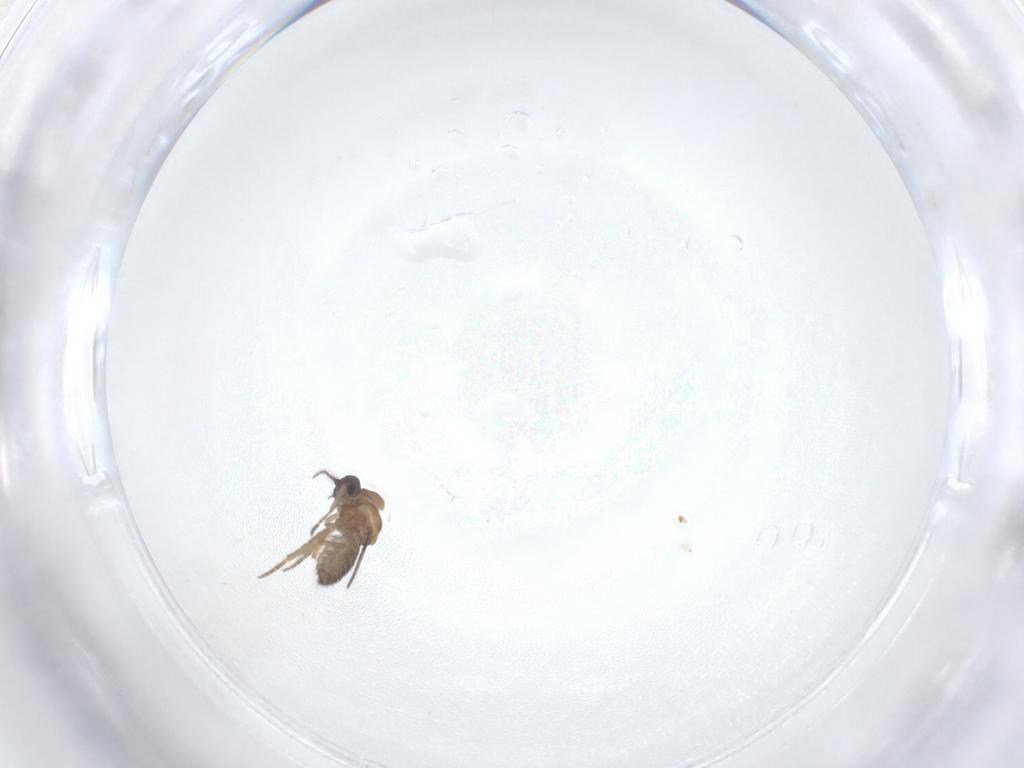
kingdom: Animalia
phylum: Arthropoda
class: Insecta
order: Diptera
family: Ceratopogonidae
